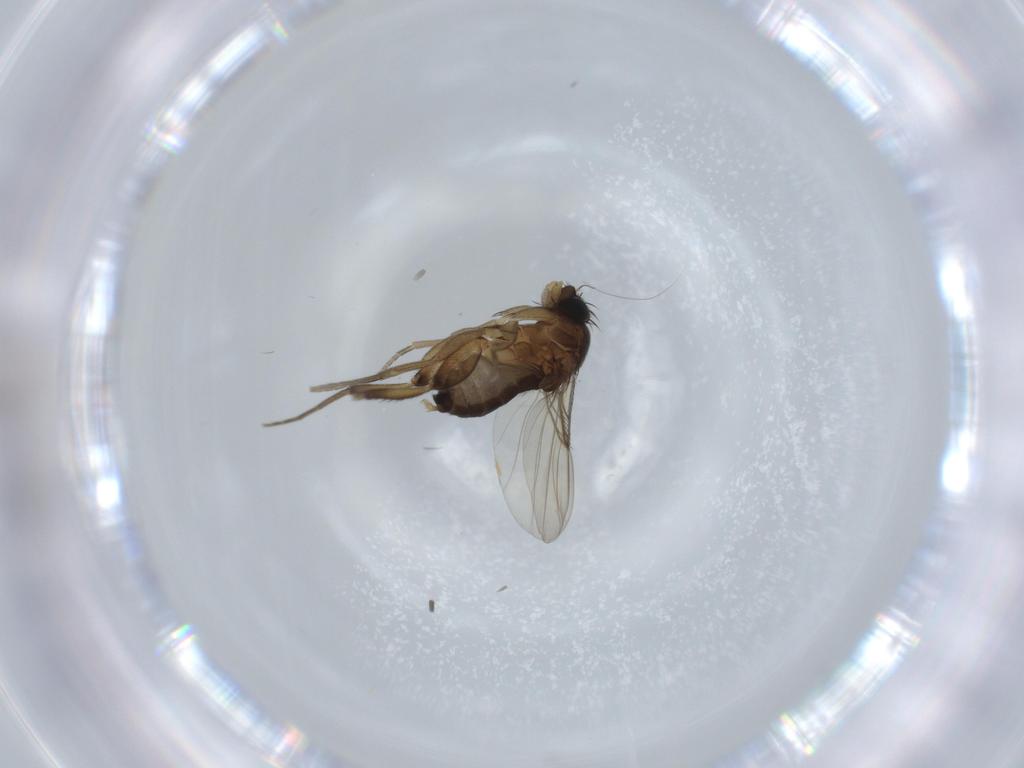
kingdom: Animalia
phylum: Arthropoda
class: Insecta
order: Diptera
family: Phoridae
